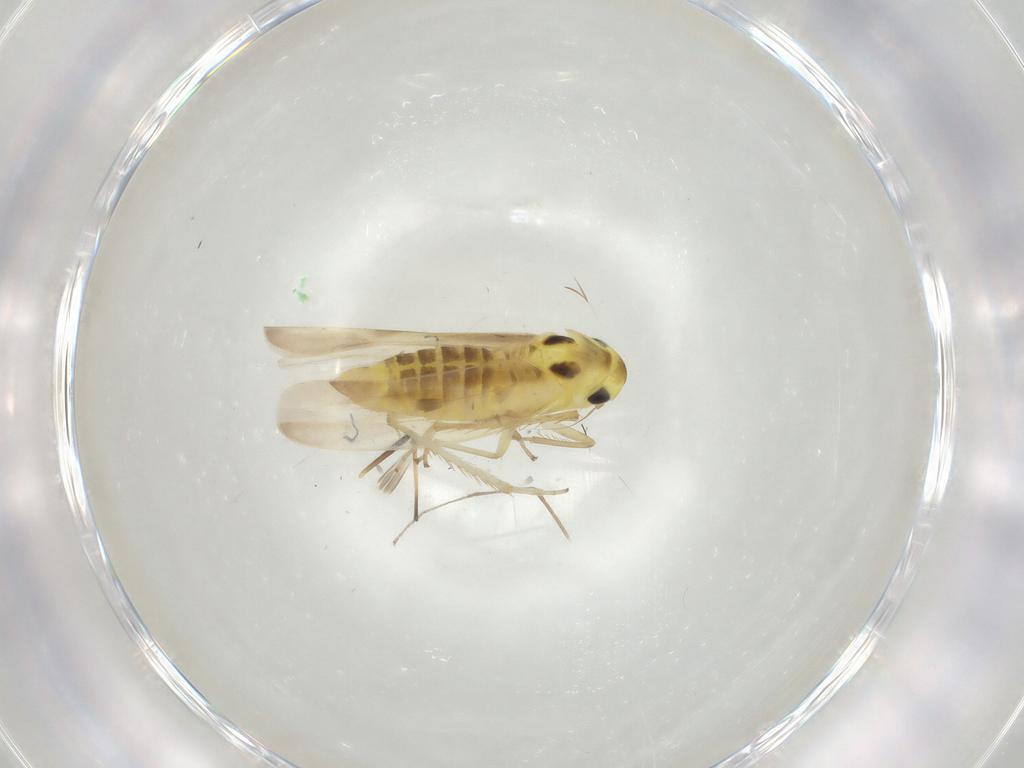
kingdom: Animalia
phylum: Arthropoda
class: Insecta
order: Hemiptera
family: Cicadellidae
